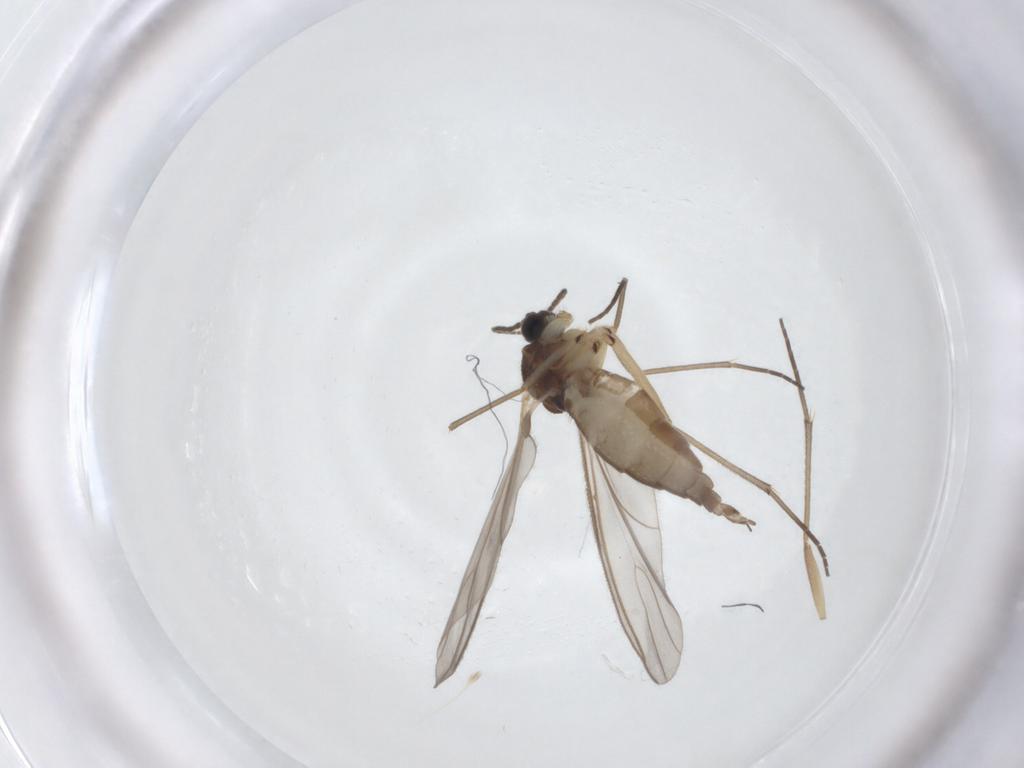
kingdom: Animalia
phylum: Arthropoda
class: Insecta
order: Diptera
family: Sciaridae
